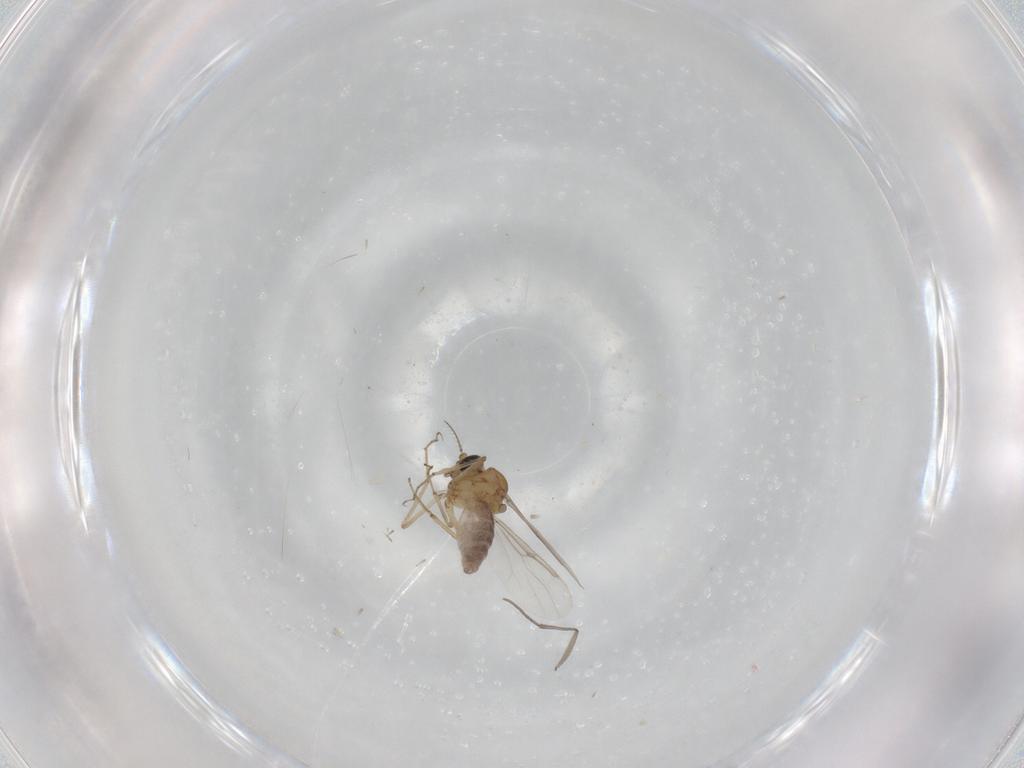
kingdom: Animalia
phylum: Arthropoda
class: Insecta
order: Diptera
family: Ceratopogonidae
